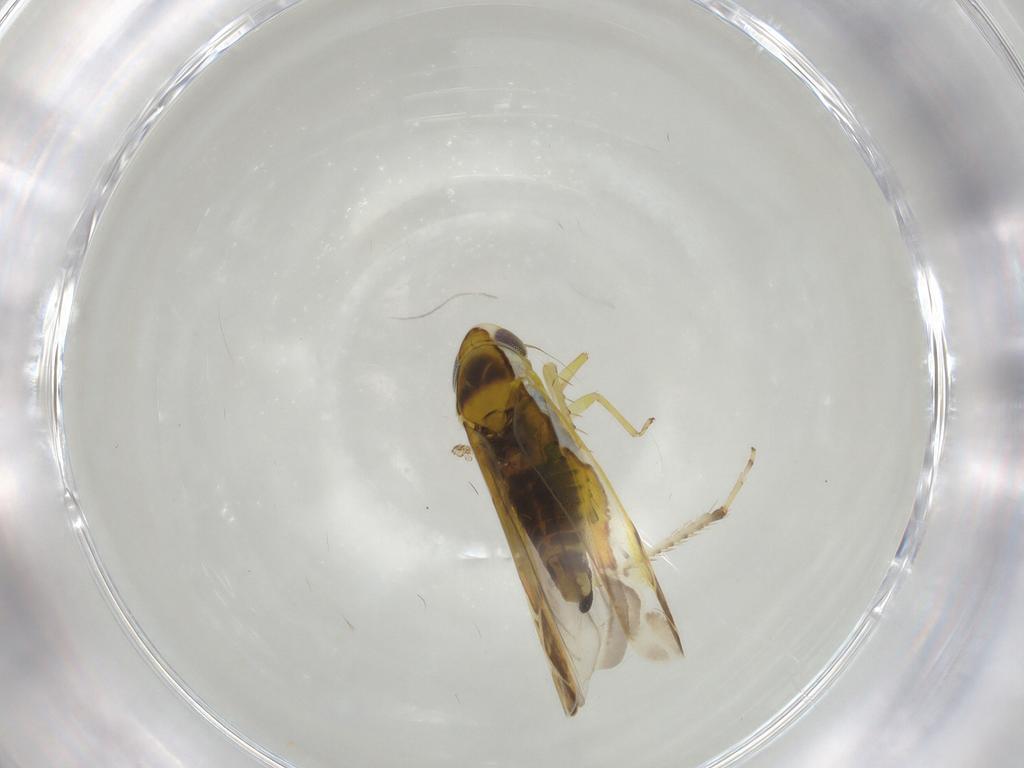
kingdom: Animalia
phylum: Arthropoda
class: Insecta
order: Hemiptera
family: Cicadellidae
